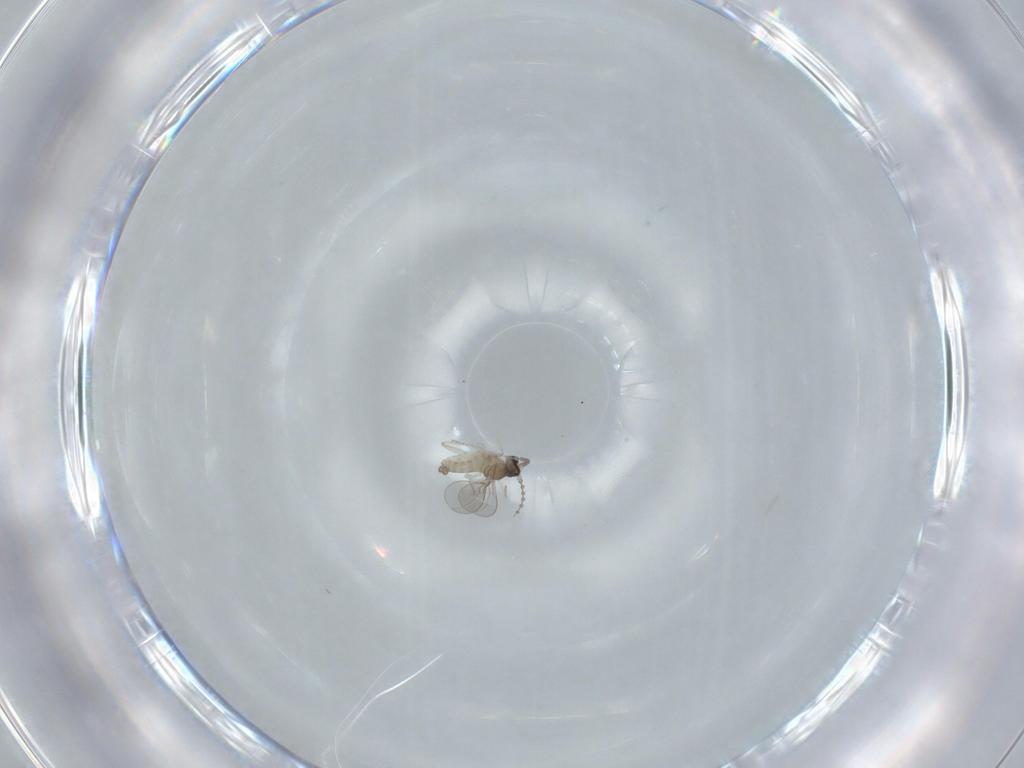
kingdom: Animalia
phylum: Arthropoda
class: Insecta
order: Diptera
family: Cecidomyiidae
